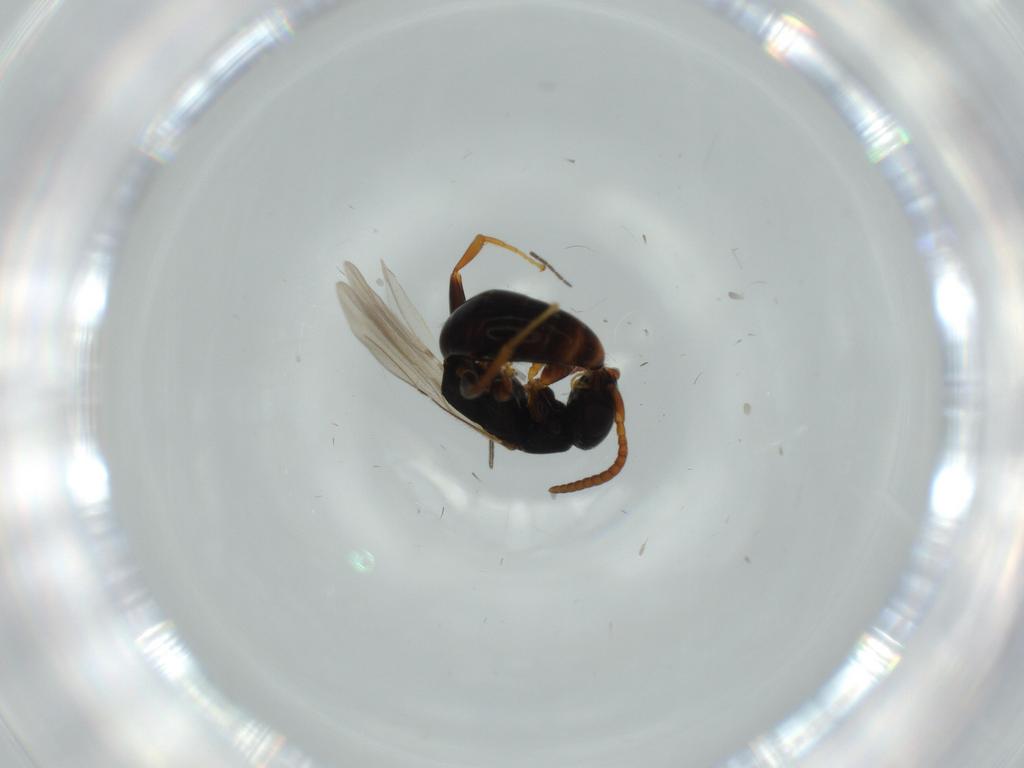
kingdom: Animalia
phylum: Arthropoda
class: Insecta
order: Hymenoptera
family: Bethylidae
